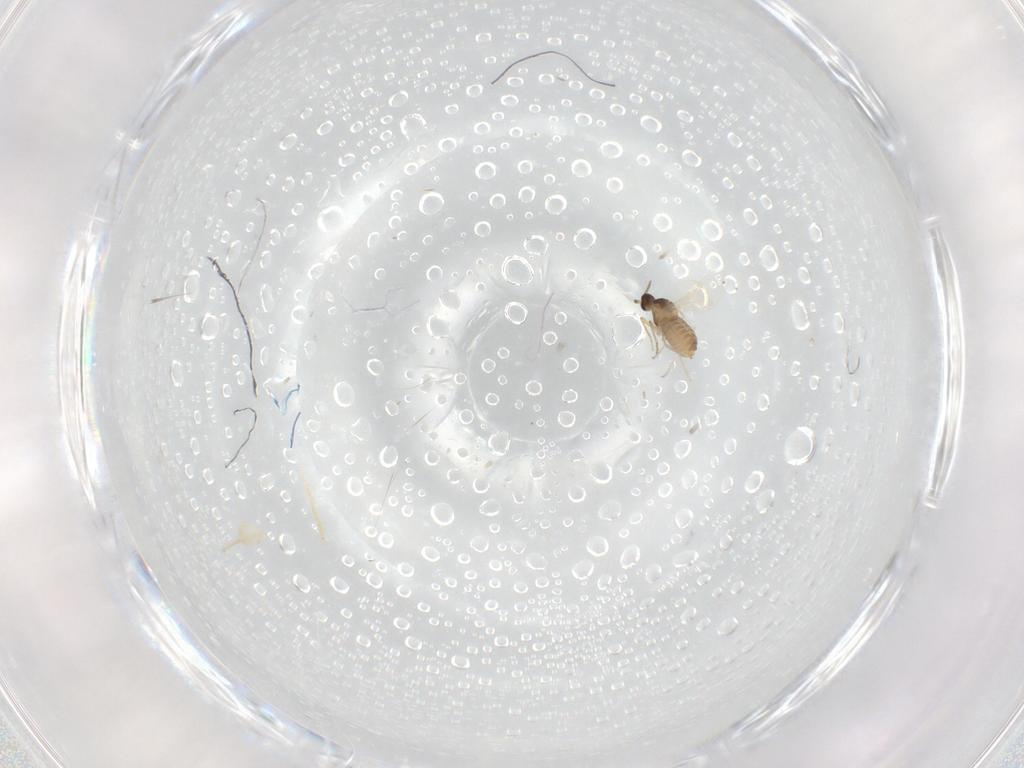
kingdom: Animalia
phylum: Arthropoda
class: Insecta
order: Diptera
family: Cecidomyiidae
